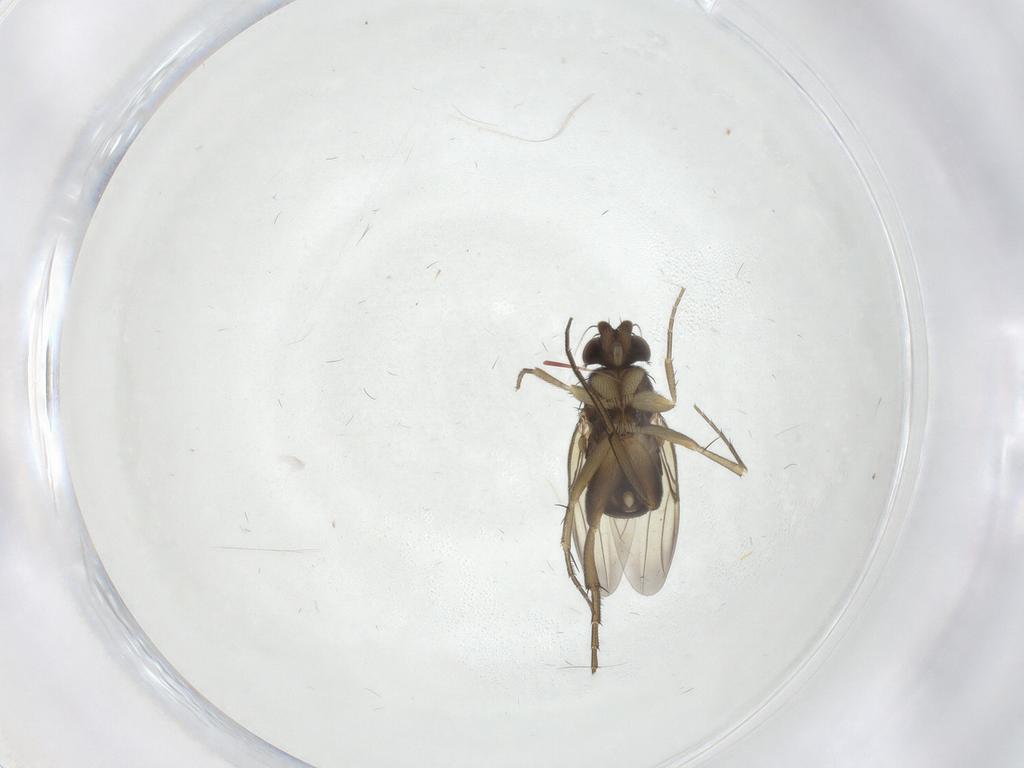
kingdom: Animalia
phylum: Arthropoda
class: Insecta
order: Diptera
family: Phoridae
